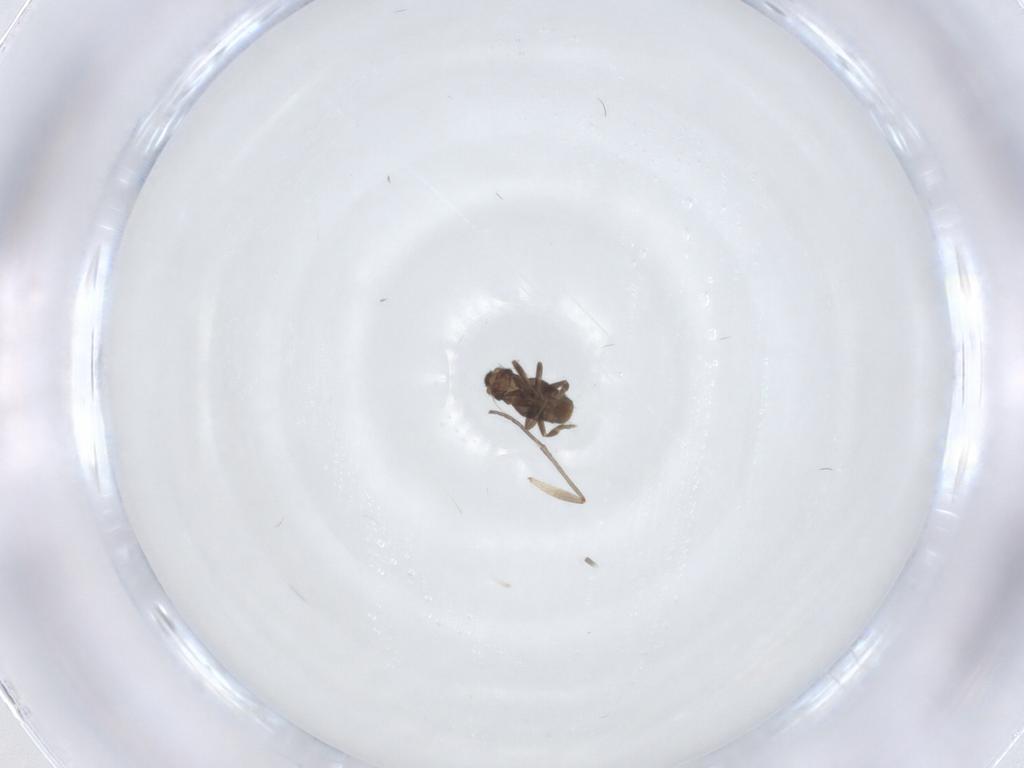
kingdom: Animalia
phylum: Arthropoda
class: Insecta
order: Diptera
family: Phoridae
